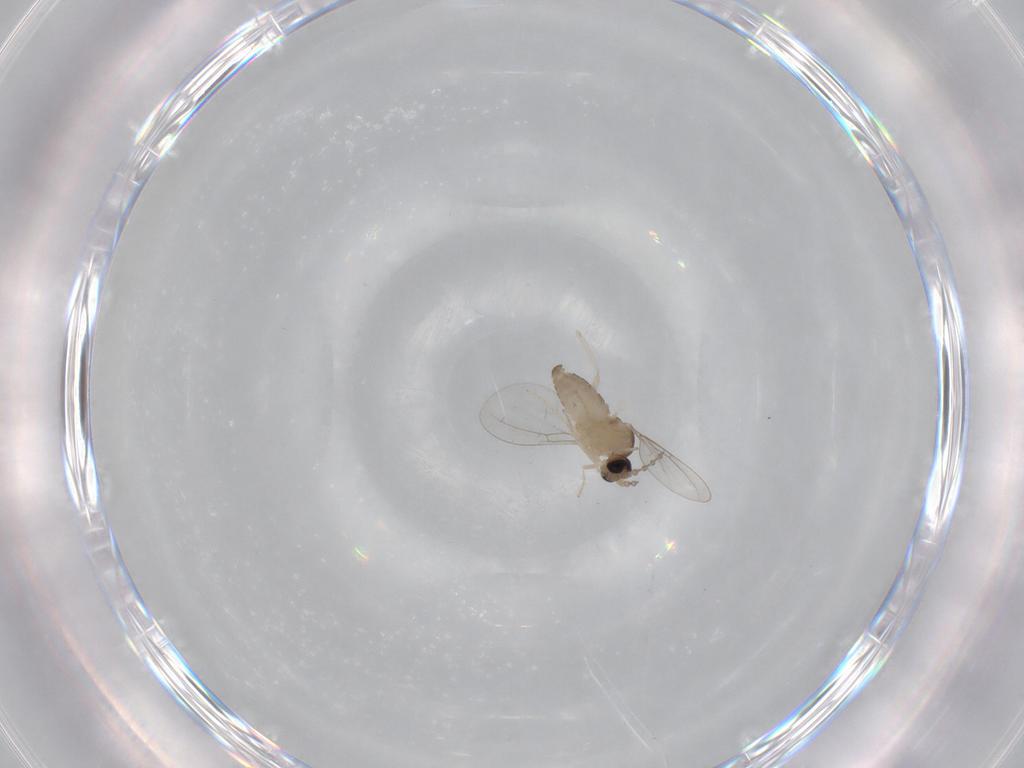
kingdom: Animalia
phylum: Arthropoda
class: Insecta
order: Diptera
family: Cecidomyiidae
